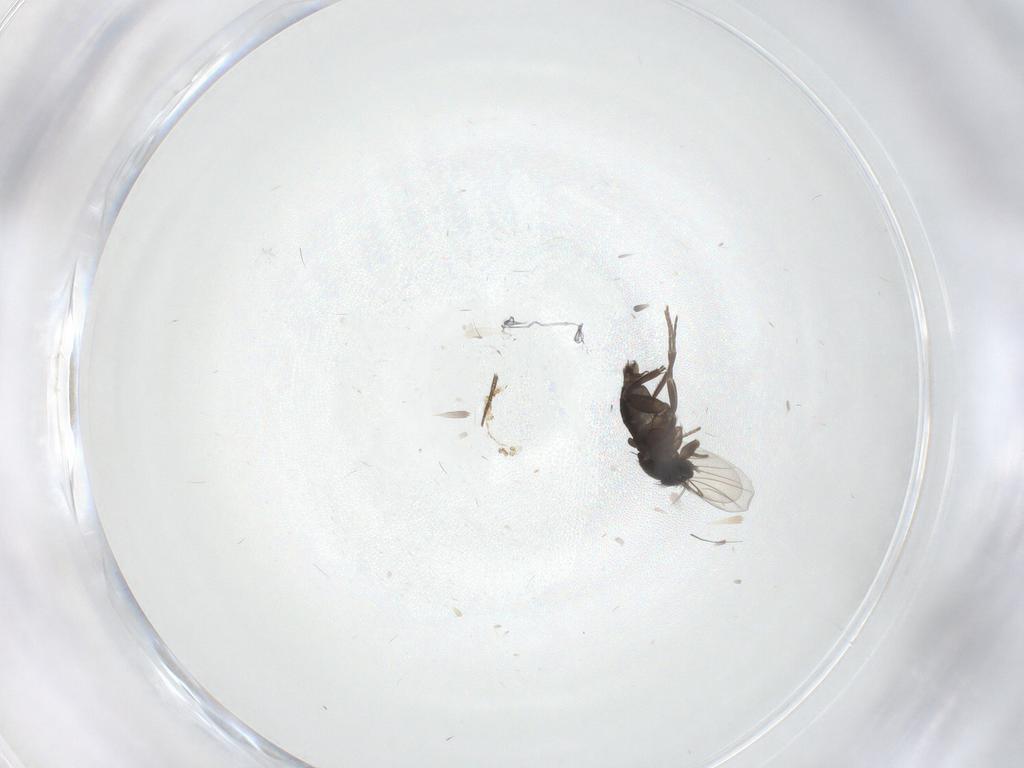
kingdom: Animalia
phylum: Arthropoda
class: Insecta
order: Diptera
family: Phoridae
